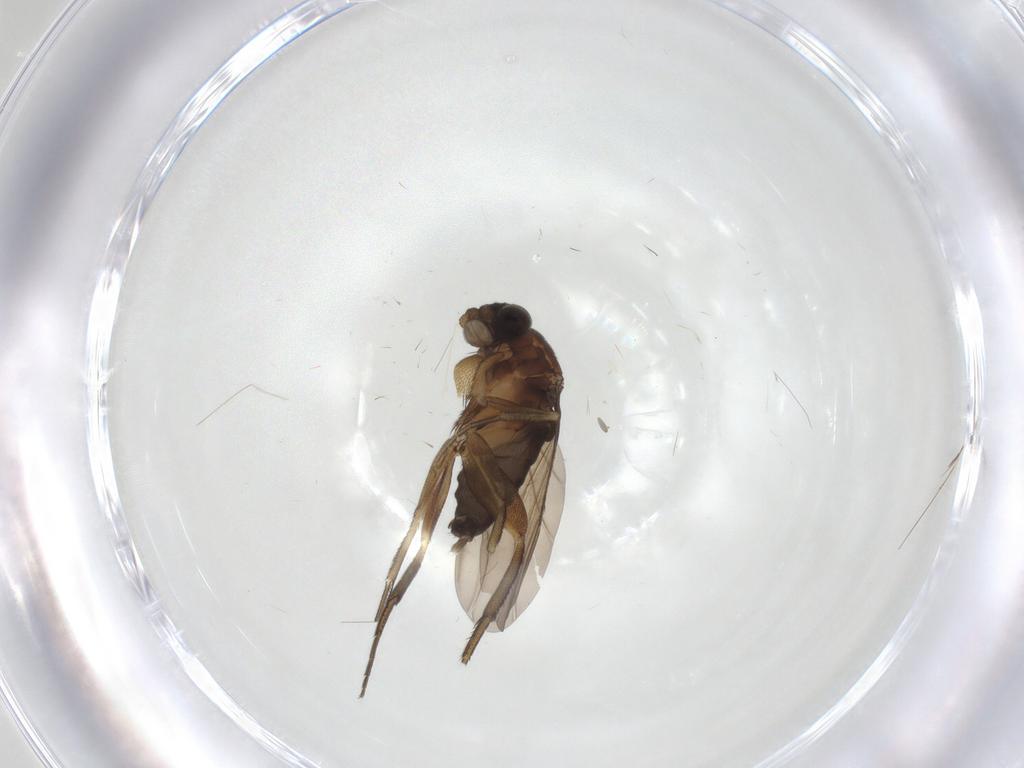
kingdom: Animalia
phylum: Arthropoda
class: Insecta
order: Diptera
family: Phoridae
